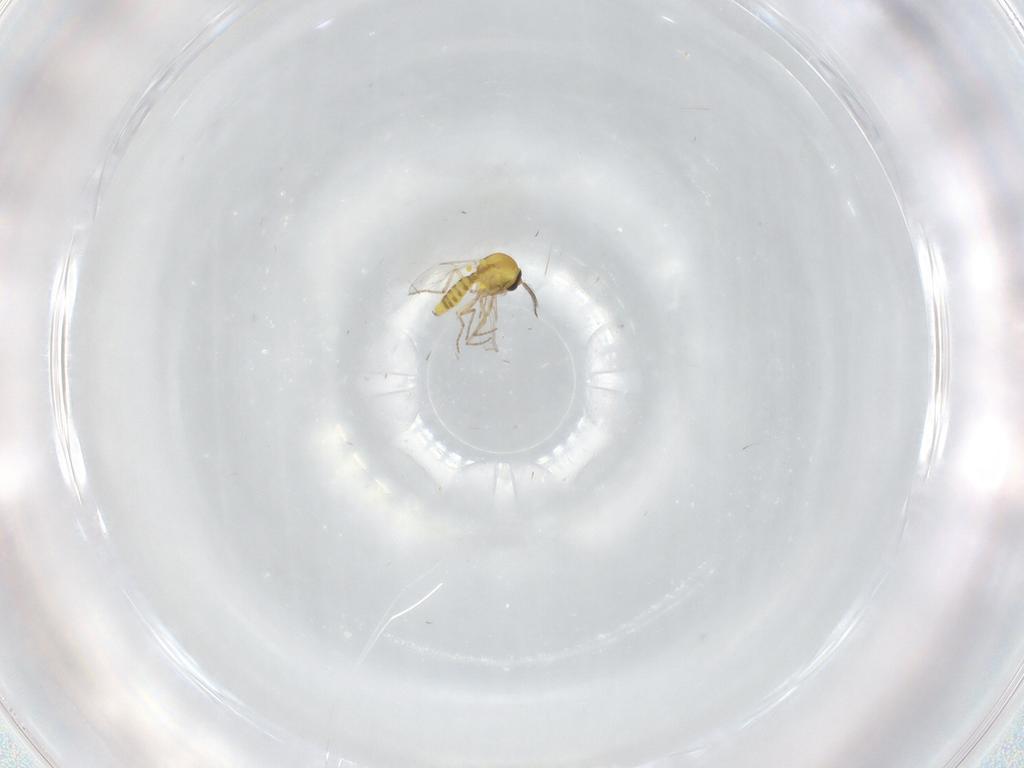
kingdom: Animalia
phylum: Arthropoda
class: Insecta
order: Diptera
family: Ceratopogonidae
